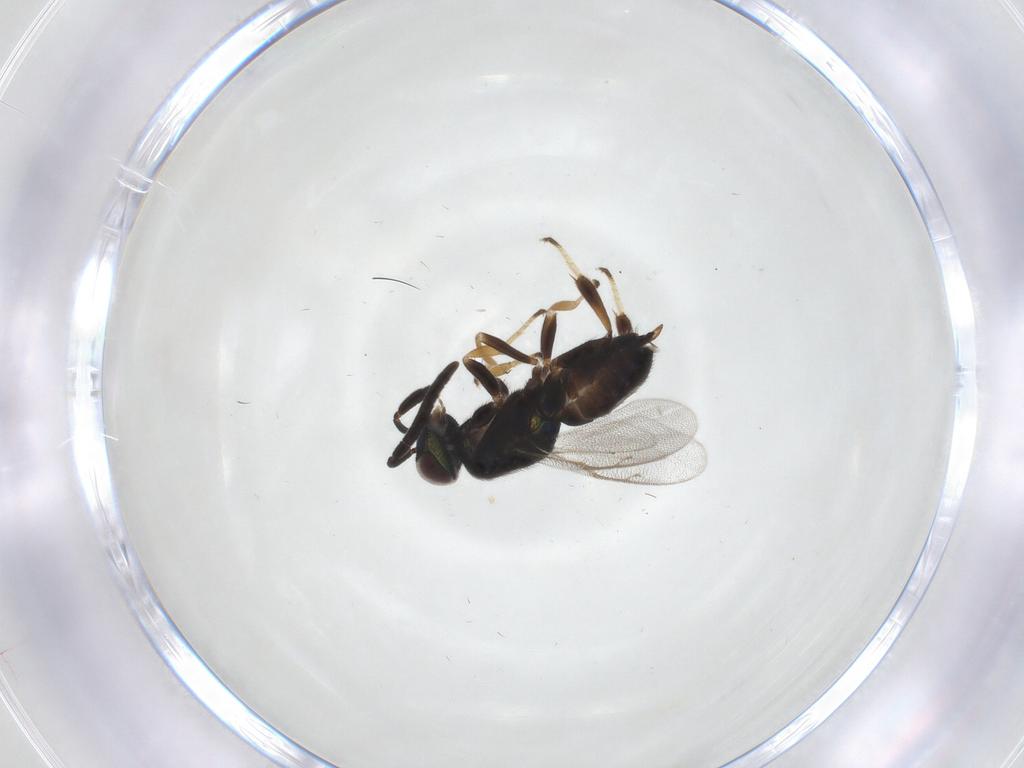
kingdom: Animalia
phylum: Arthropoda
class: Insecta
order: Hymenoptera
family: Braconidae
